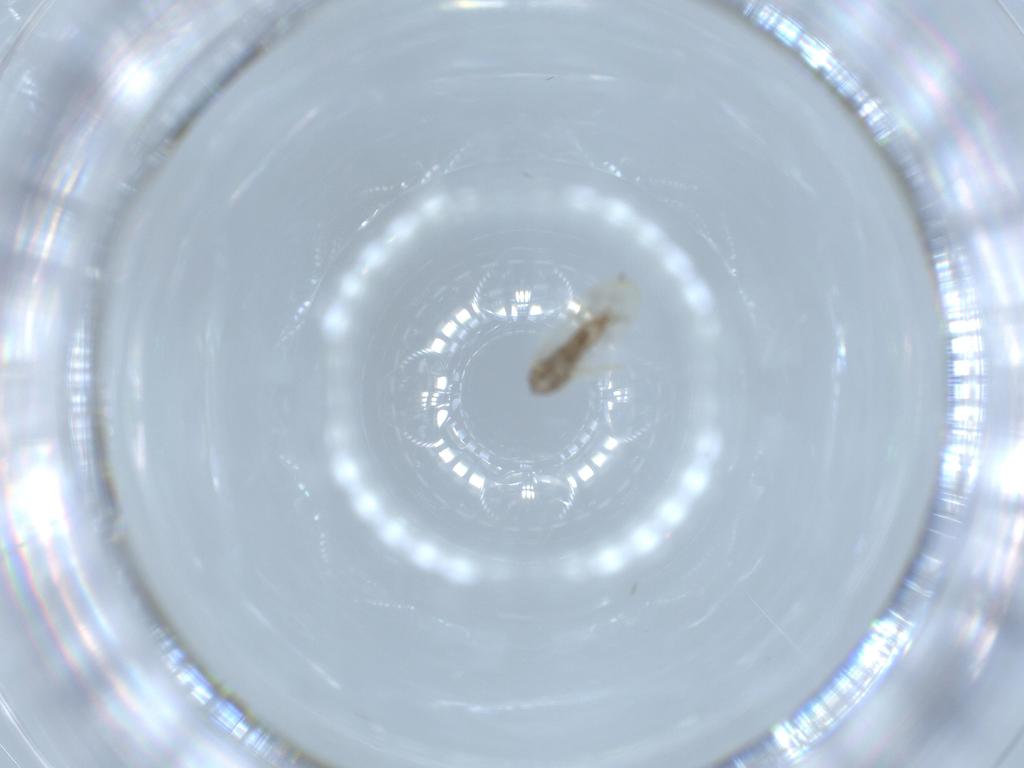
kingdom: Animalia
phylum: Arthropoda
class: Insecta
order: Diptera
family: Cecidomyiidae
